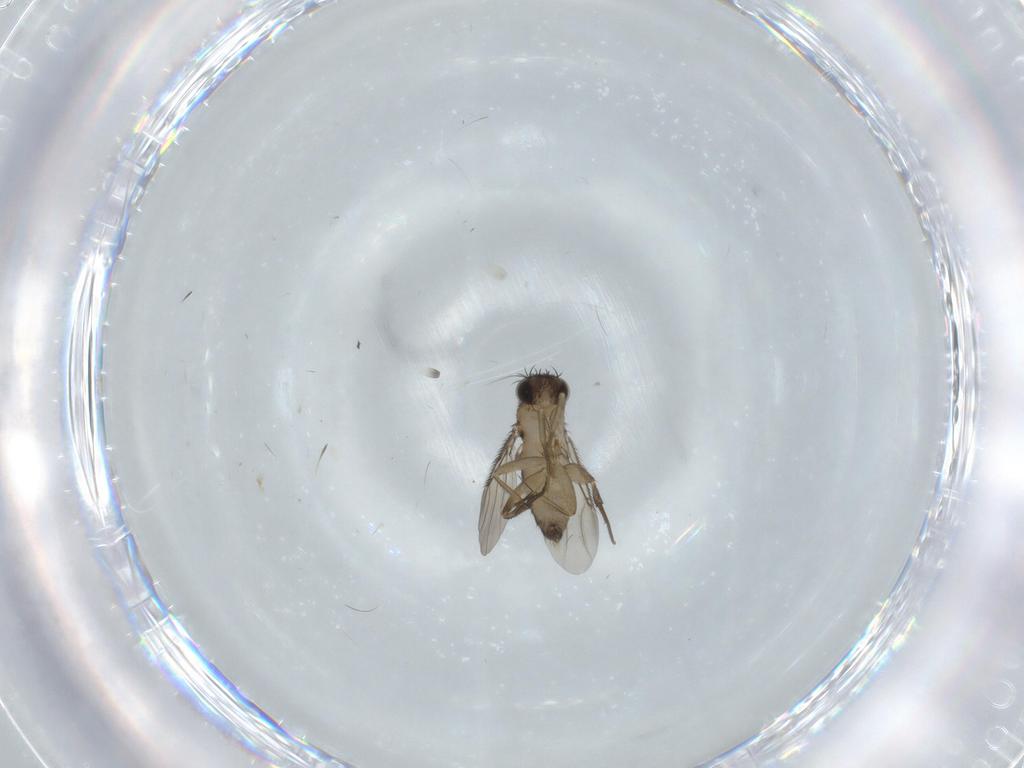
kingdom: Animalia
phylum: Arthropoda
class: Insecta
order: Diptera
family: Phoridae
